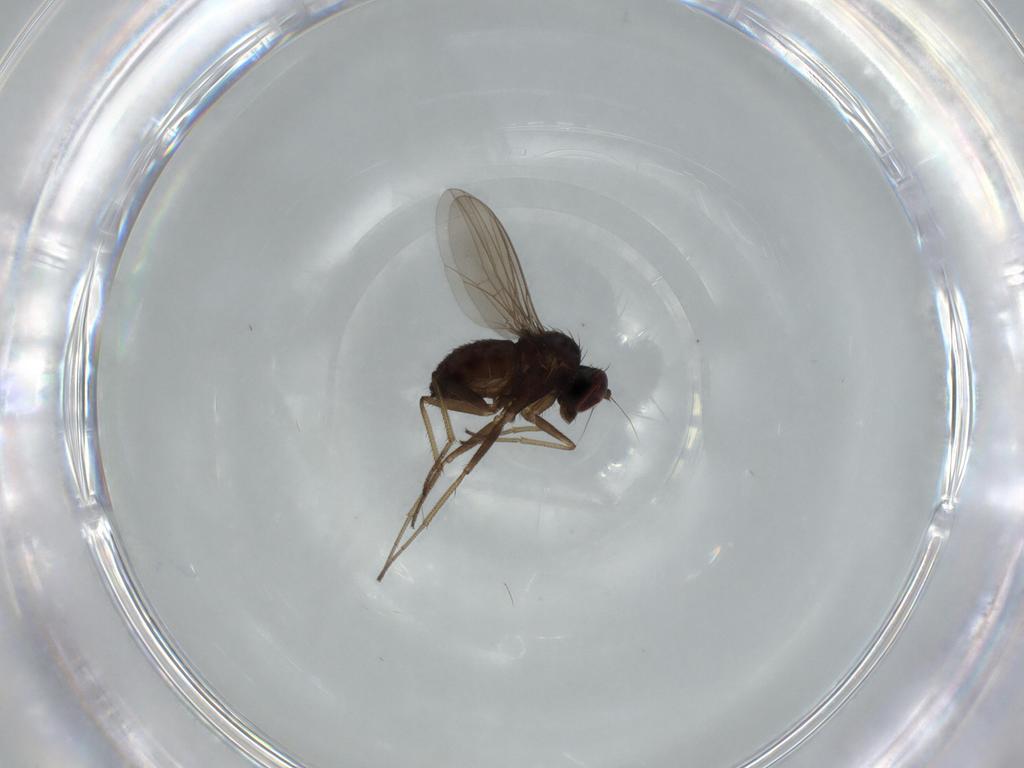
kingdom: Animalia
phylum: Arthropoda
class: Insecta
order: Diptera
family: Dolichopodidae
